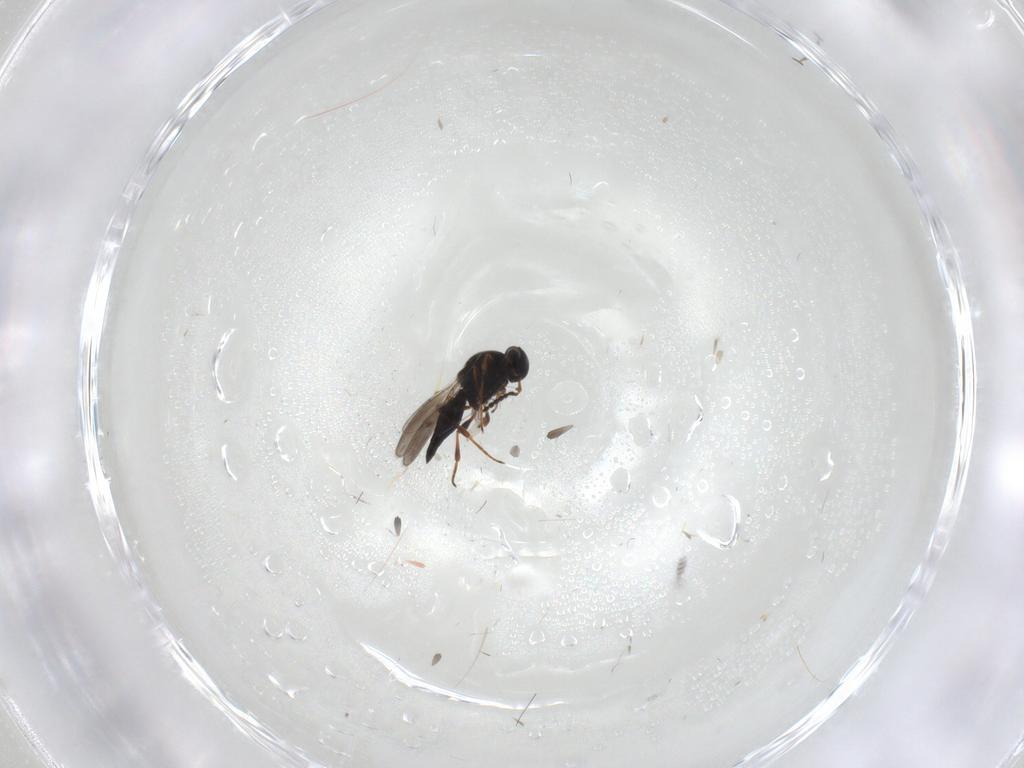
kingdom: Animalia
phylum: Arthropoda
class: Insecta
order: Hymenoptera
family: Platygastridae
